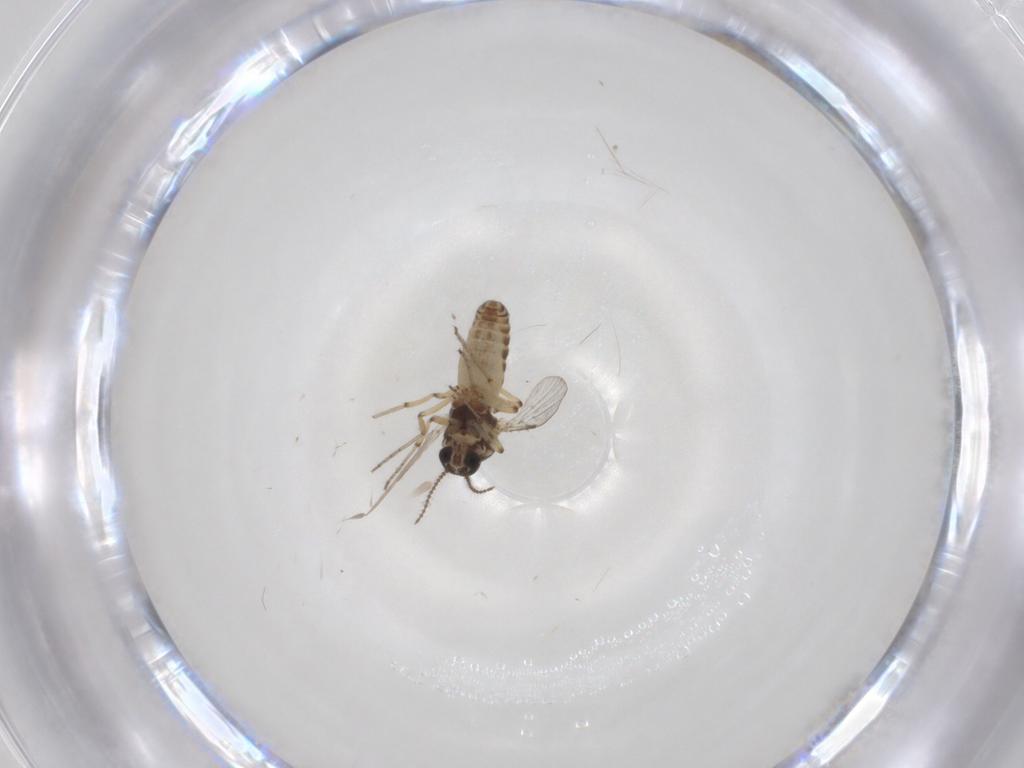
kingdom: Animalia
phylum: Arthropoda
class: Insecta
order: Diptera
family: Ceratopogonidae
